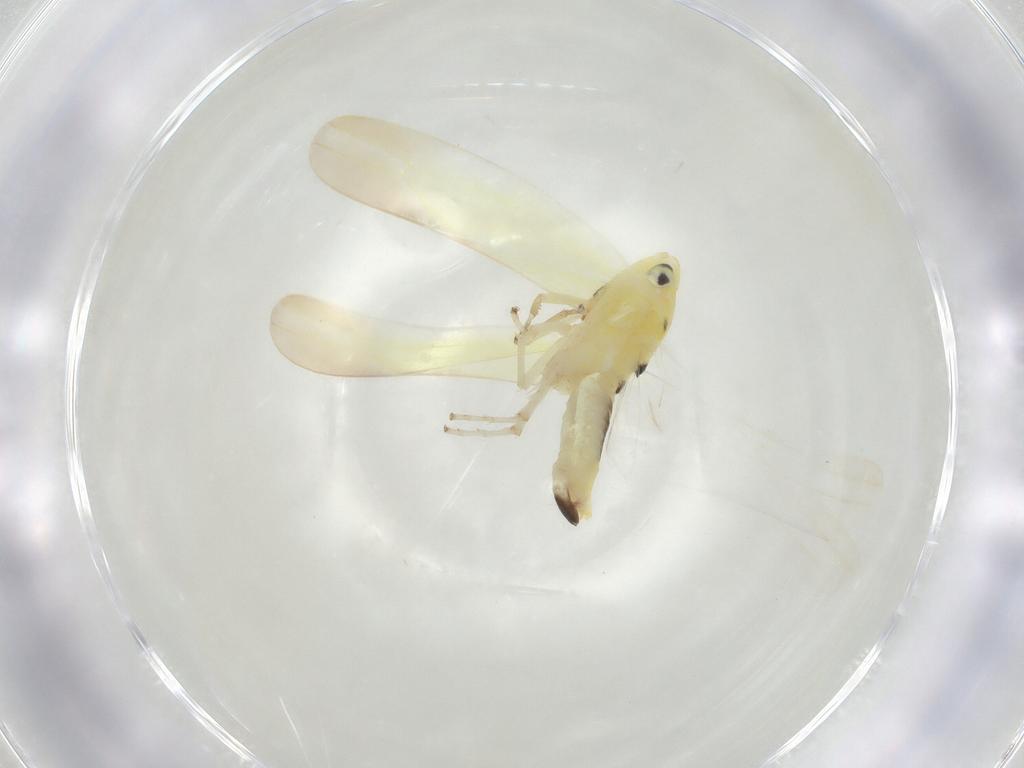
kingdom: Animalia
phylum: Arthropoda
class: Insecta
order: Hemiptera
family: Cicadellidae
